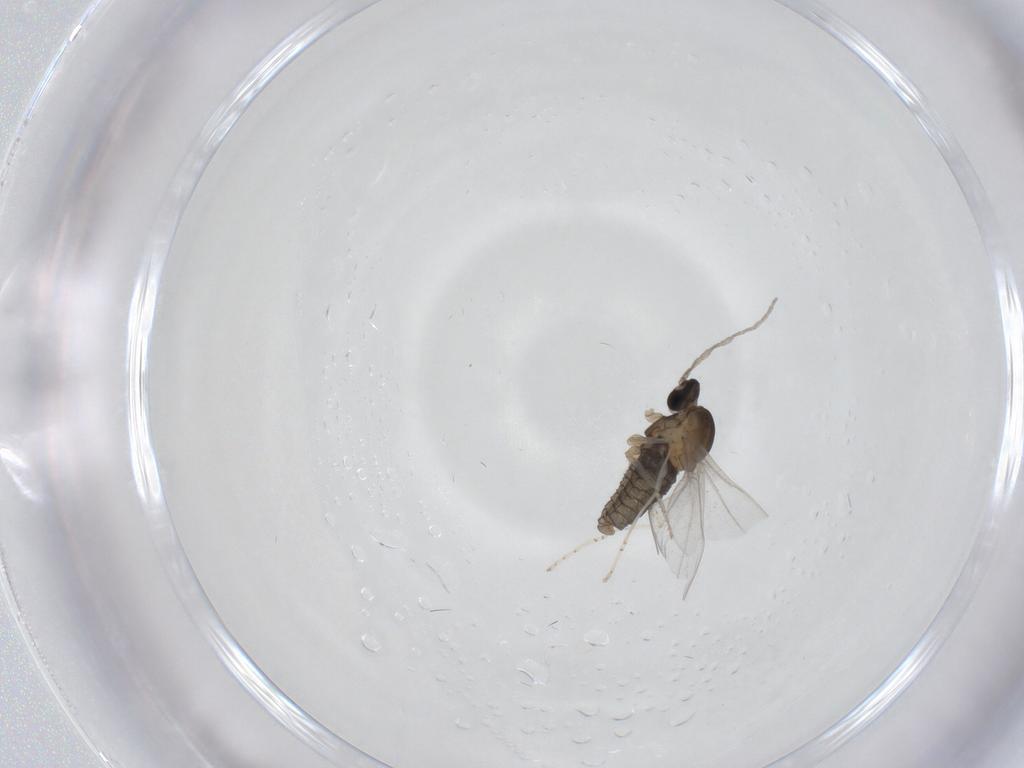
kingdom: Animalia
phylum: Arthropoda
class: Insecta
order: Diptera
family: Cecidomyiidae
